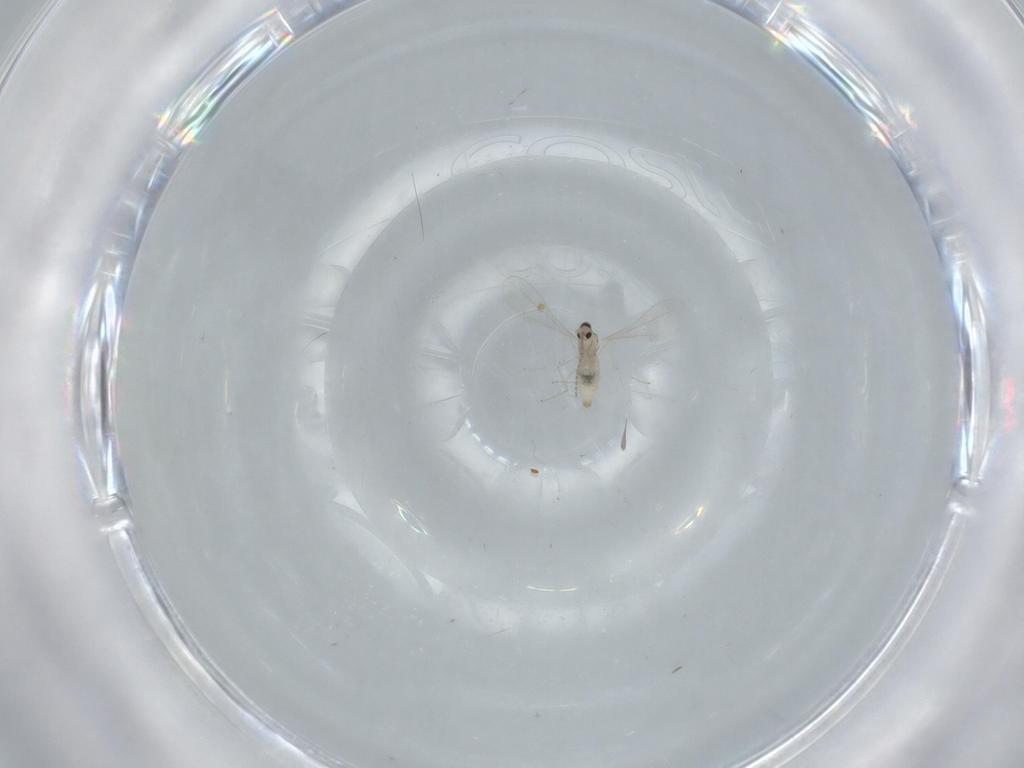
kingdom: Animalia
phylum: Arthropoda
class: Insecta
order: Diptera
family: Cecidomyiidae
